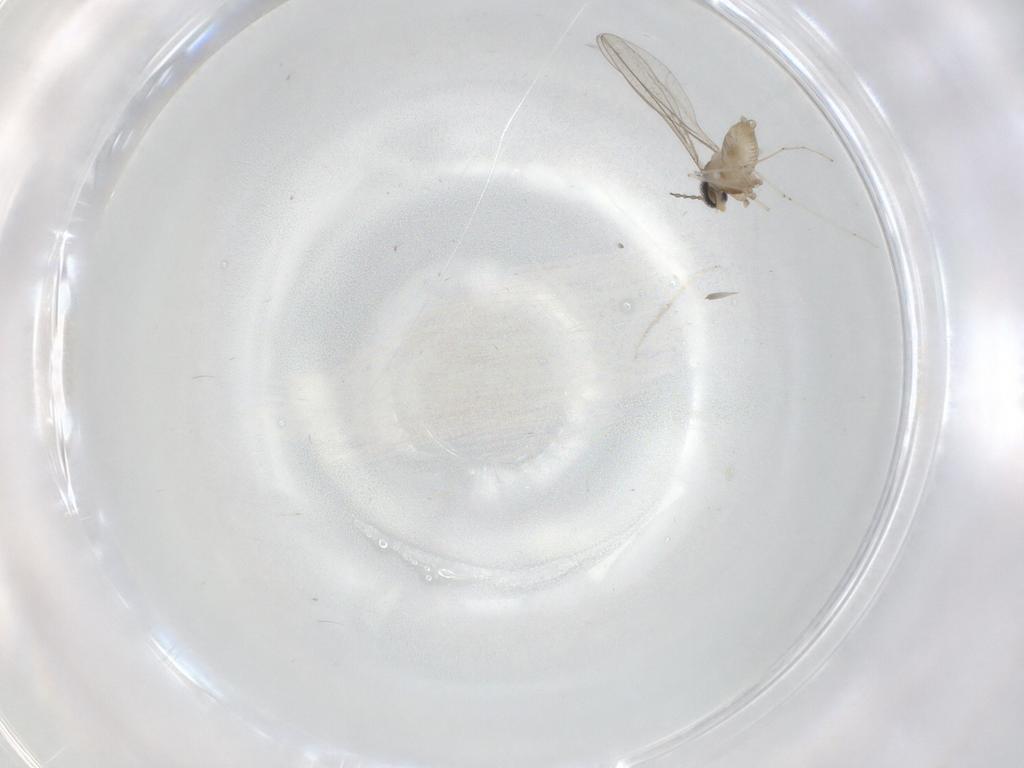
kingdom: Animalia
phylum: Arthropoda
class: Insecta
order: Diptera
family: Cecidomyiidae
